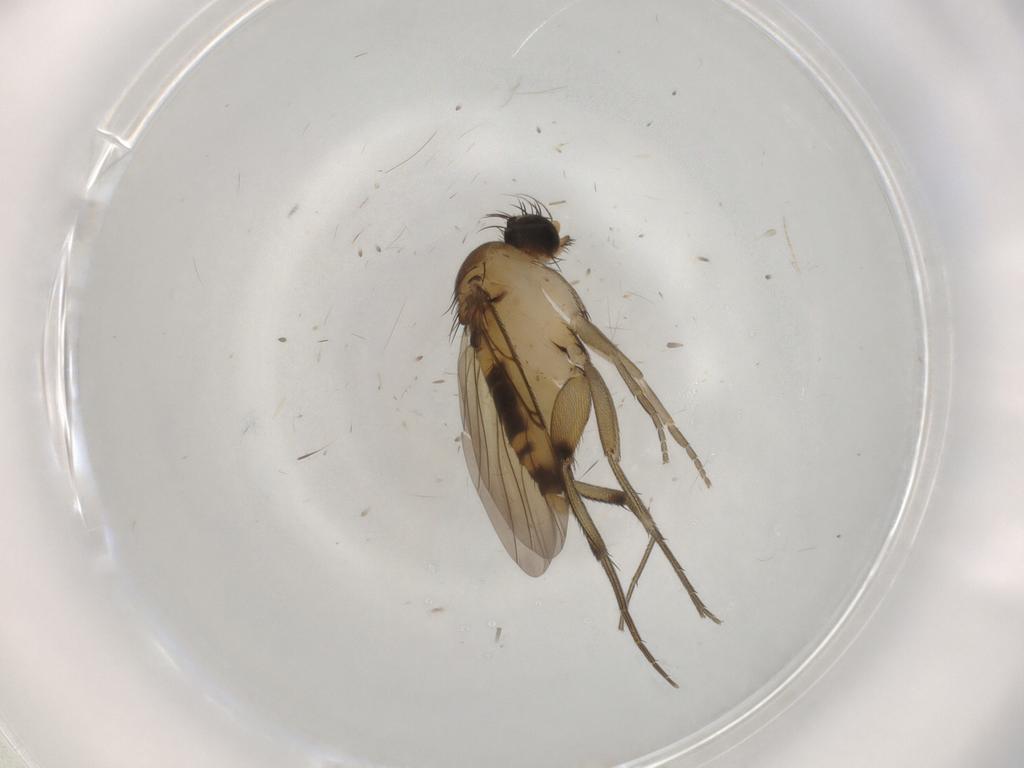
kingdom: Animalia
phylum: Arthropoda
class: Insecta
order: Diptera
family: Phoridae
